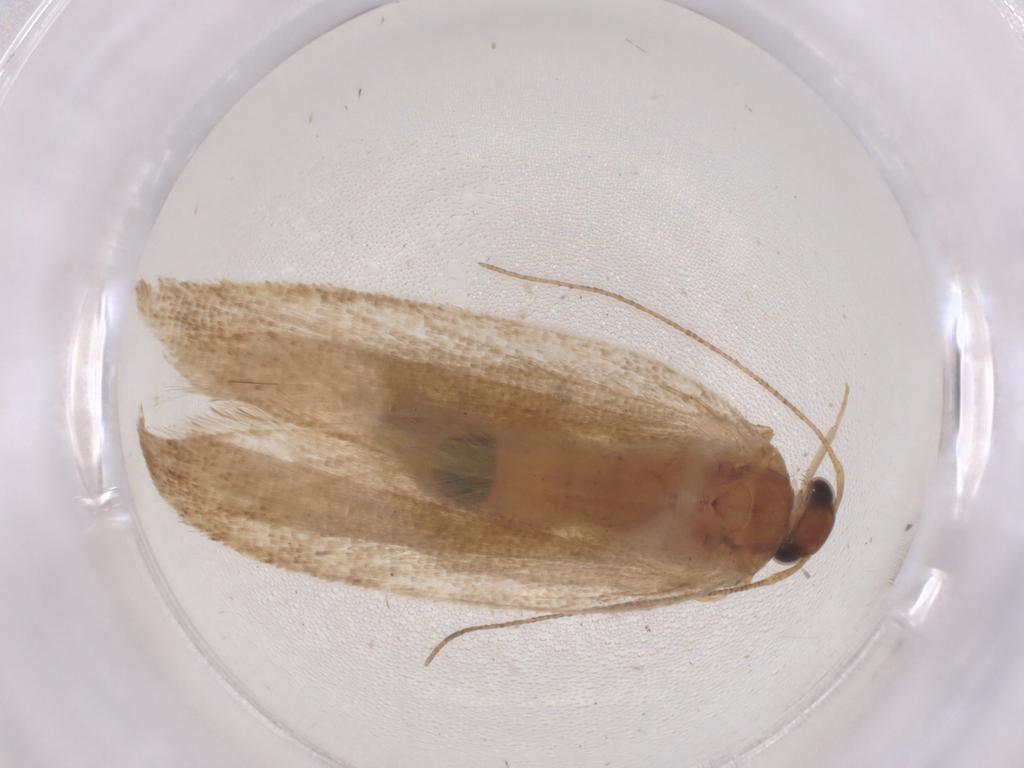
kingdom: Animalia
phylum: Arthropoda
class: Insecta
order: Lepidoptera
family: Gelechiidae
